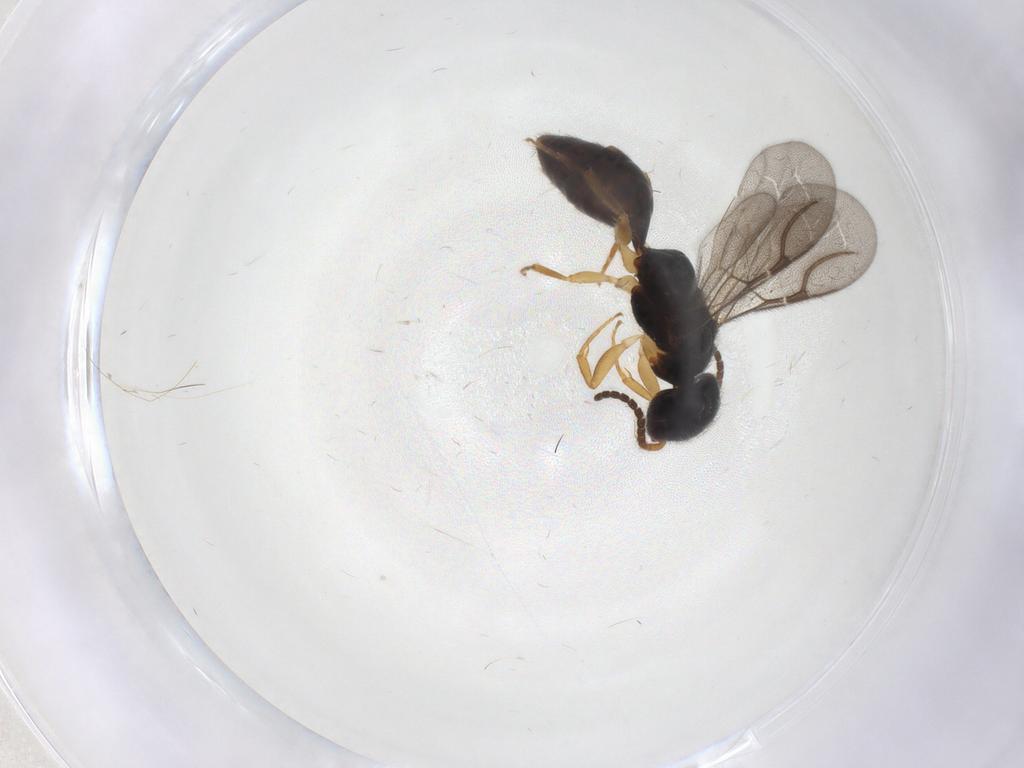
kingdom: Animalia
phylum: Arthropoda
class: Insecta
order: Hymenoptera
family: Bethylidae
